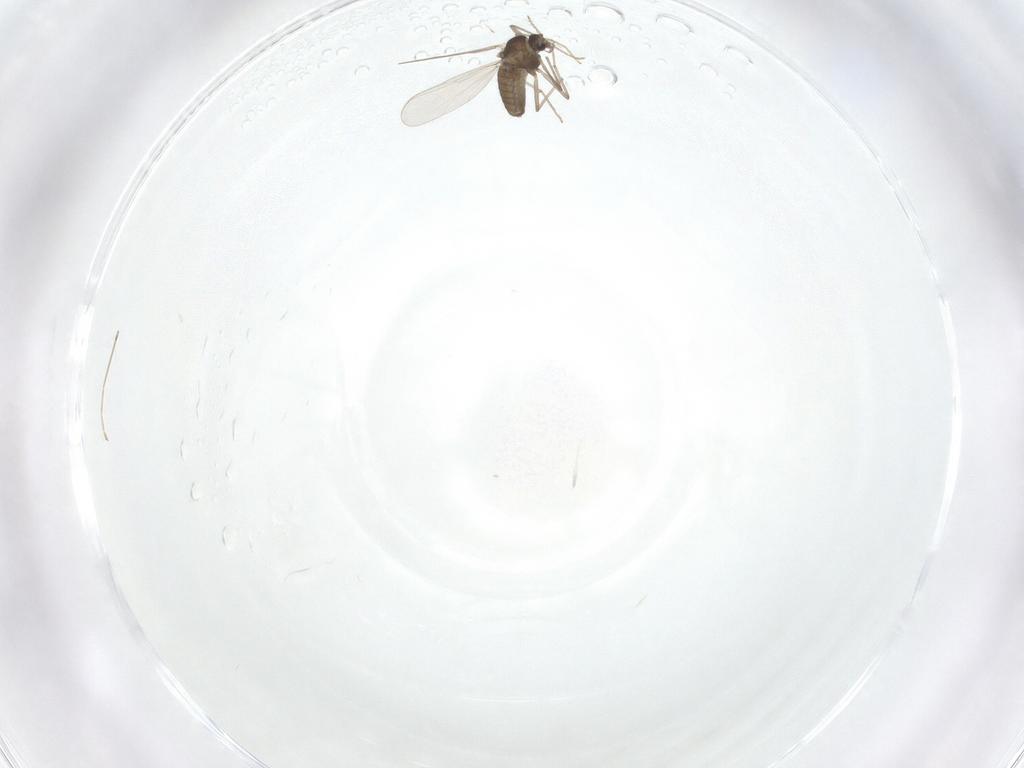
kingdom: Animalia
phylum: Arthropoda
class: Insecta
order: Diptera
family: Chironomidae
